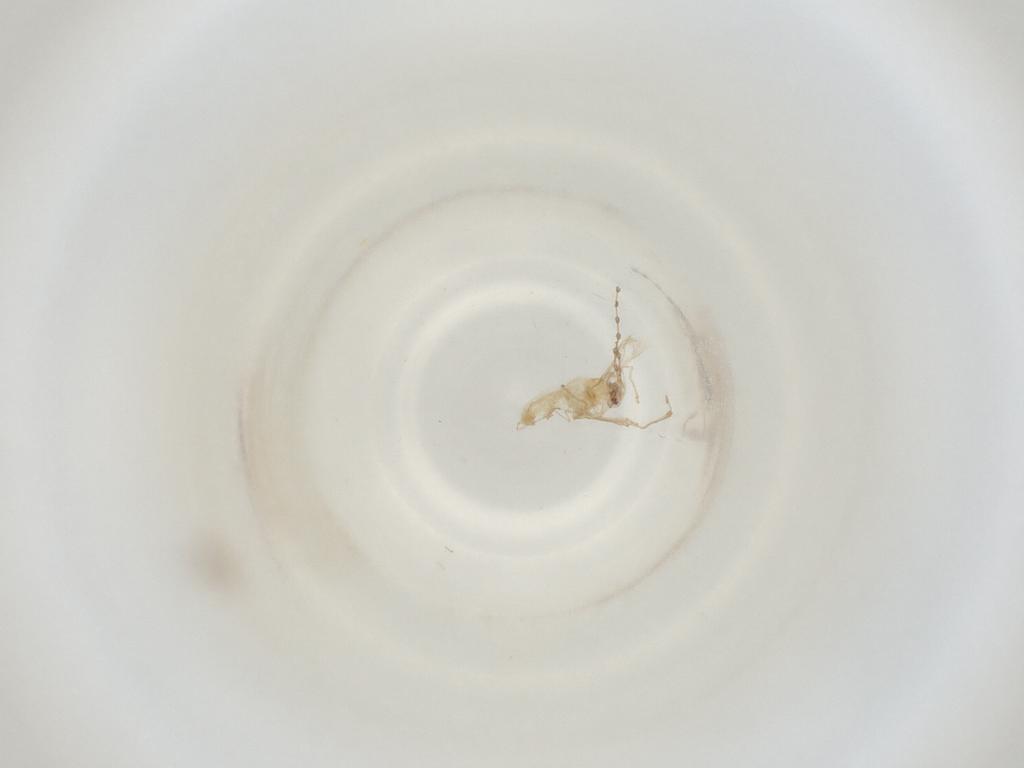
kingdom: Animalia
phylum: Arthropoda
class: Insecta
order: Diptera
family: Cecidomyiidae
